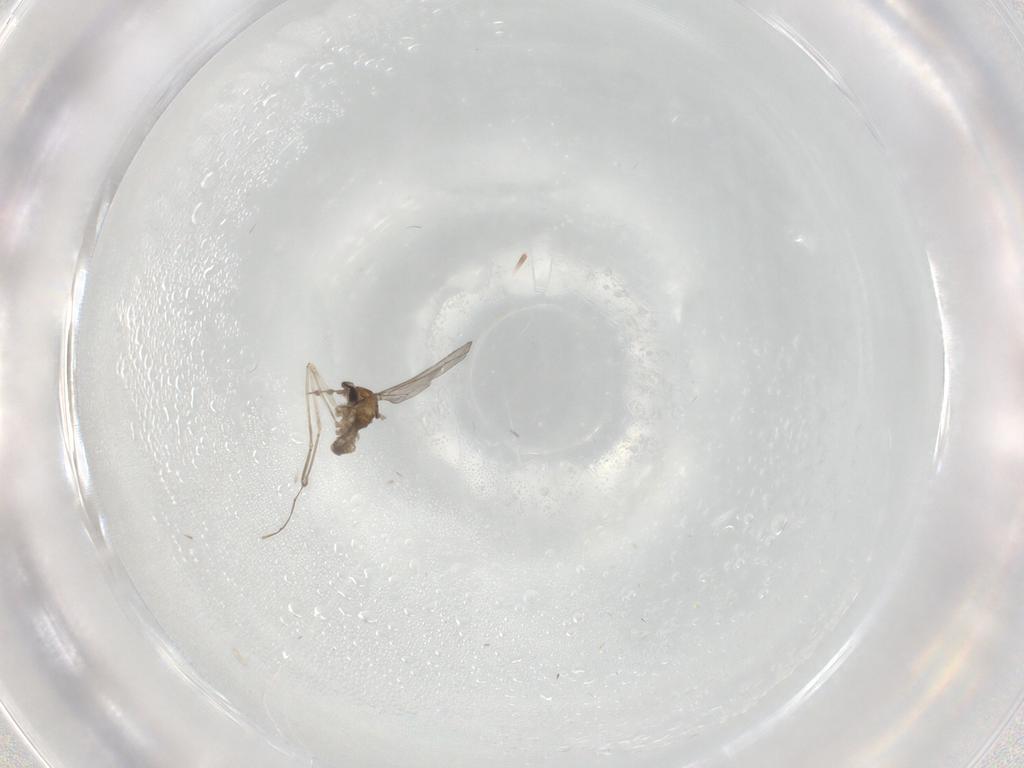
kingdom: Animalia
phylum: Arthropoda
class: Insecta
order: Diptera
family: Cecidomyiidae
